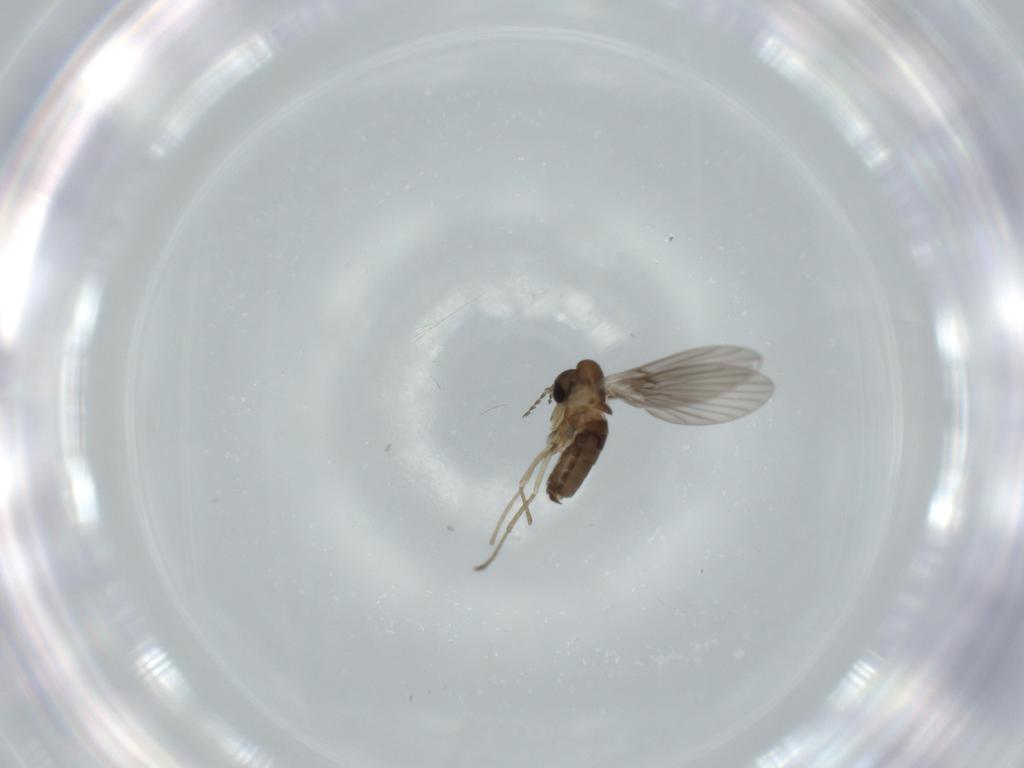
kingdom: Animalia
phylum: Arthropoda
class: Insecta
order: Diptera
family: Psychodidae
